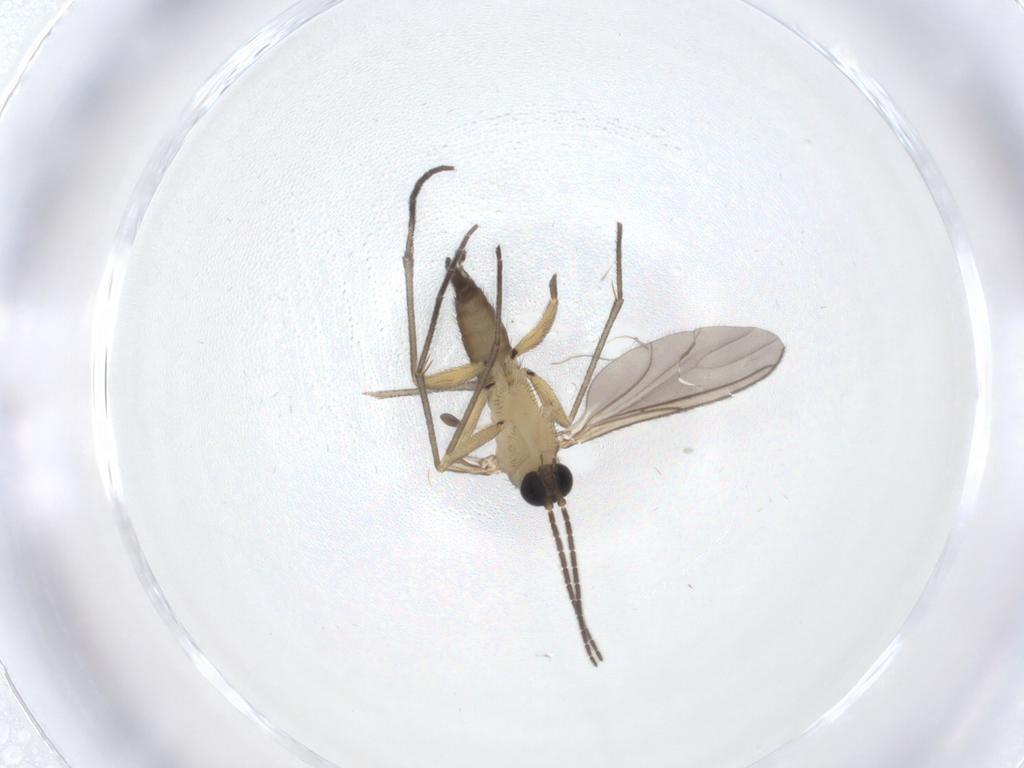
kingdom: Animalia
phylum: Arthropoda
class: Insecta
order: Diptera
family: Sciaridae
